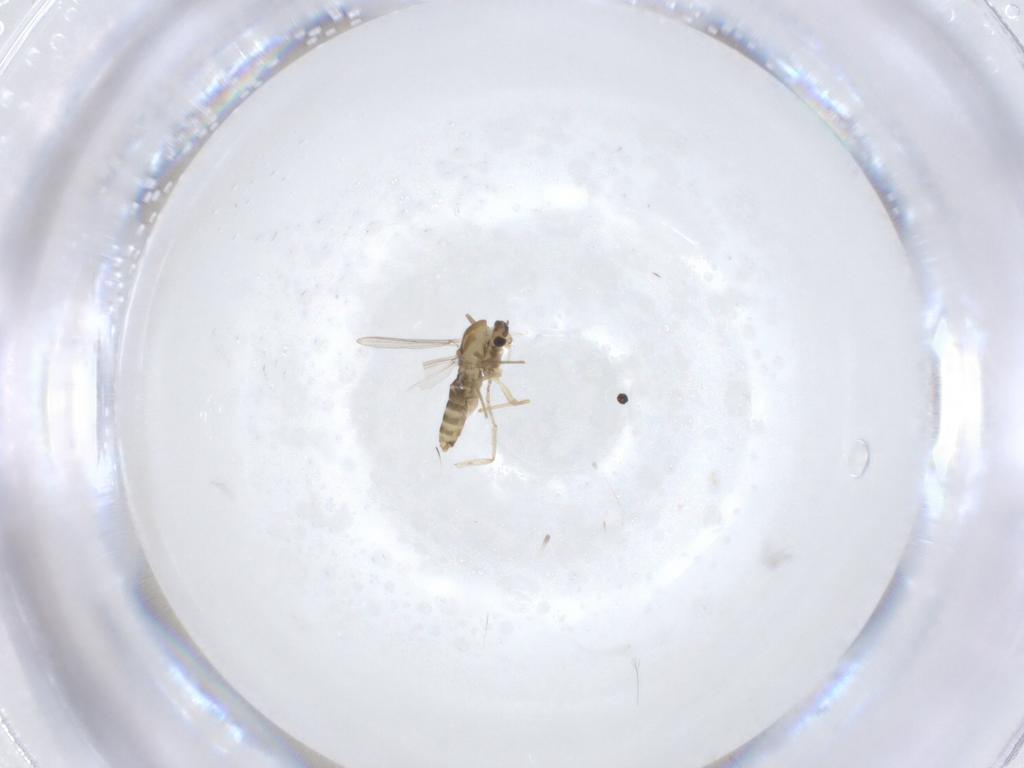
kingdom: Animalia
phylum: Arthropoda
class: Insecta
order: Diptera
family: Chironomidae
